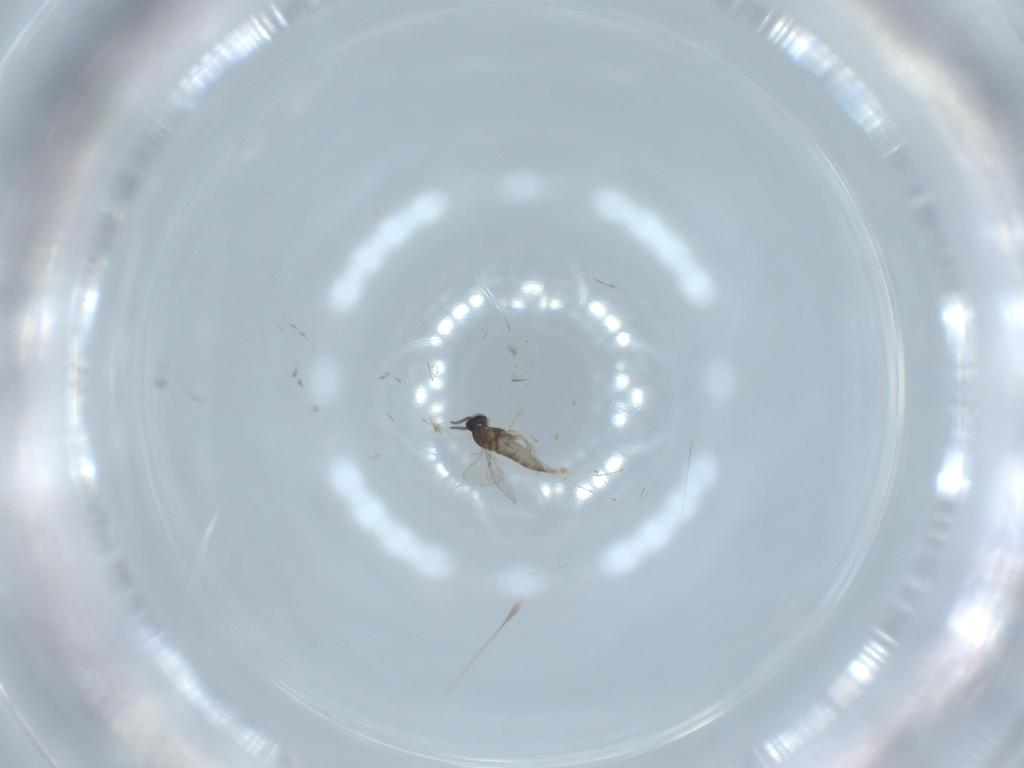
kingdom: Animalia
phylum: Arthropoda
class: Insecta
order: Diptera
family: Cecidomyiidae
